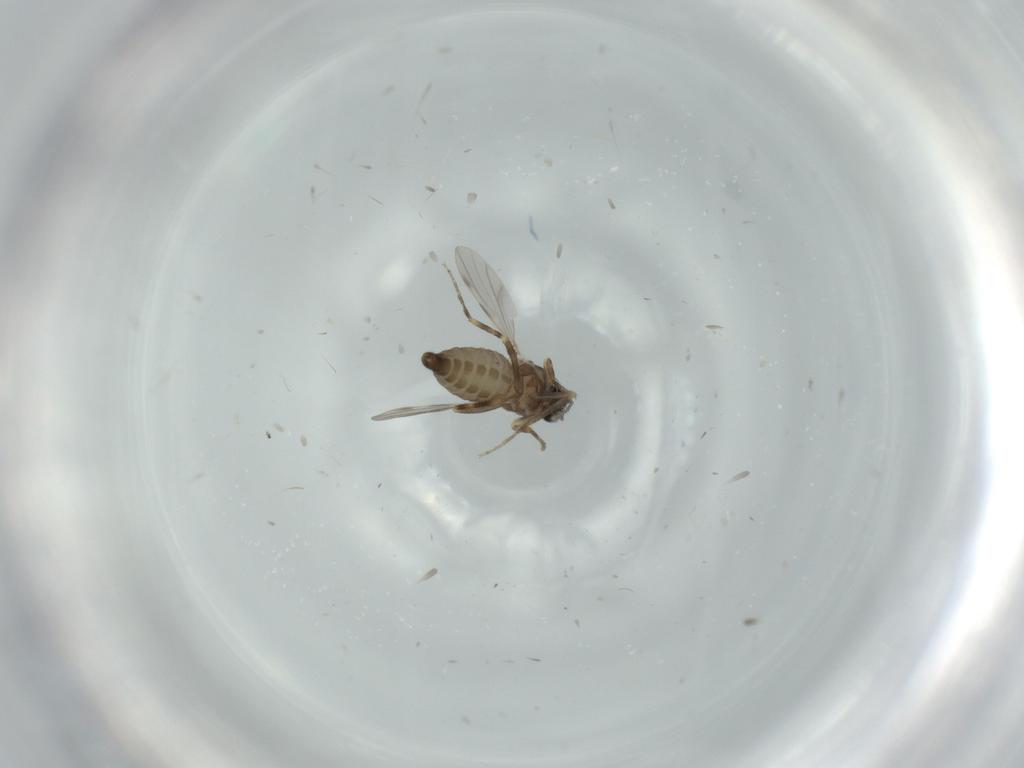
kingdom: Animalia
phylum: Arthropoda
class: Insecta
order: Diptera
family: Ceratopogonidae
